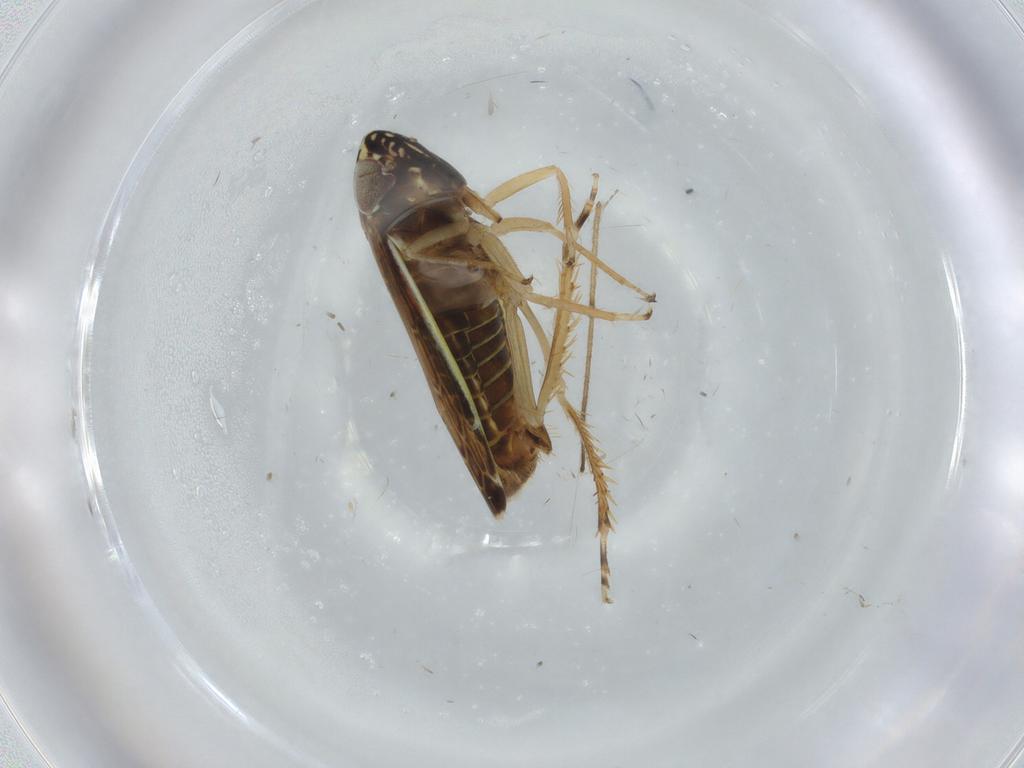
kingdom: Animalia
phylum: Arthropoda
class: Insecta
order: Hemiptera
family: Cicadellidae
